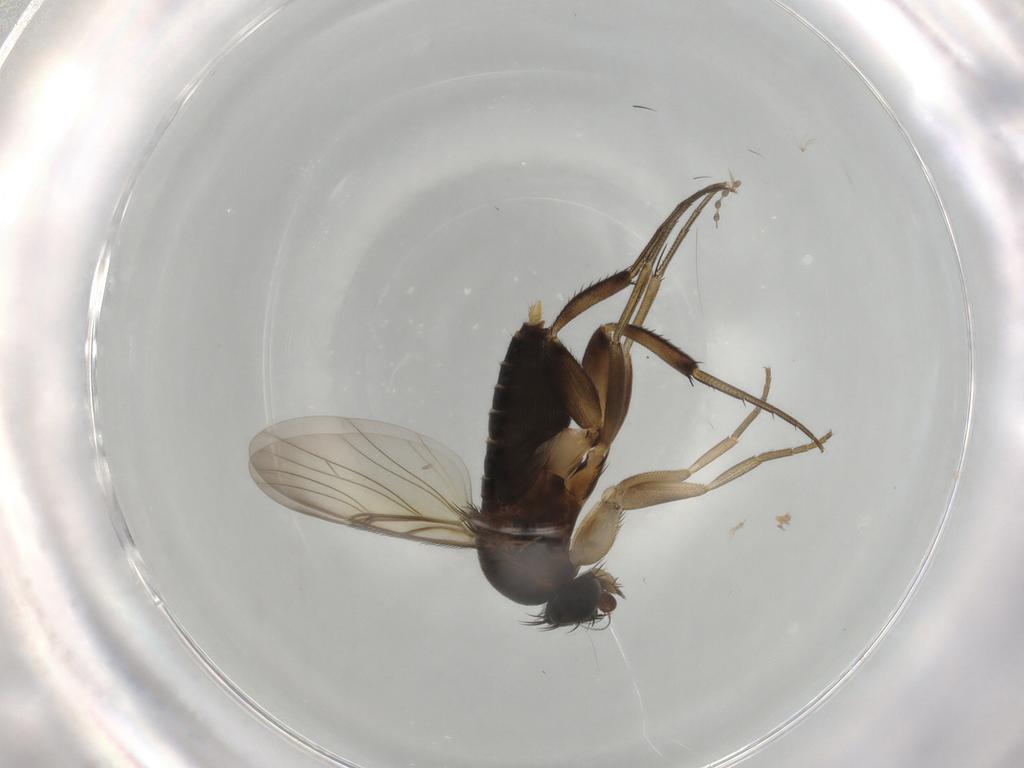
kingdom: Animalia
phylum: Arthropoda
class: Insecta
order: Diptera
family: Phoridae
